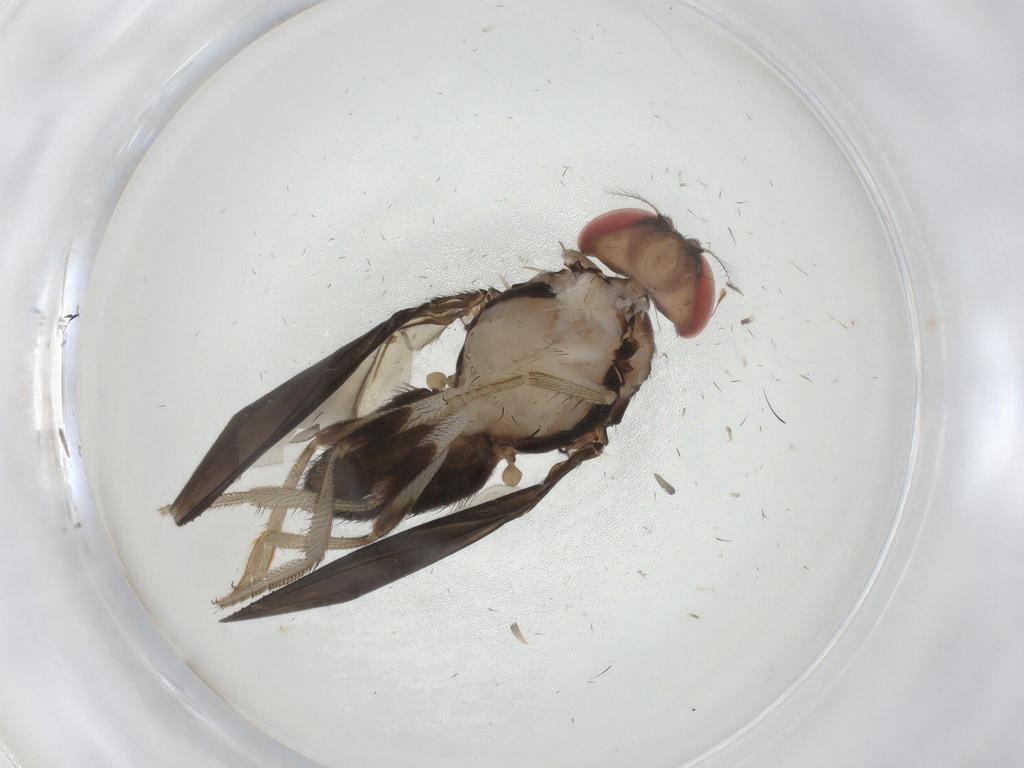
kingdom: Animalia
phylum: Arthropoda
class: Insecta
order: Diptera
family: Drosophilidae
